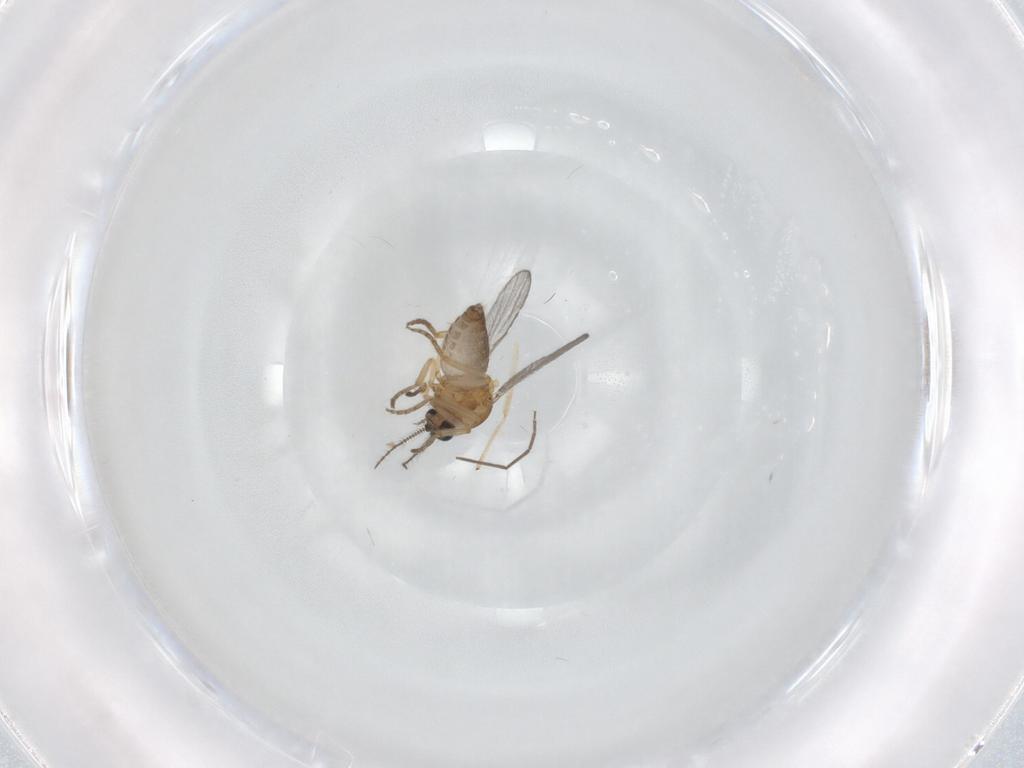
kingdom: Animalia
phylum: Arthropoda
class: Insecta
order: Diptera
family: Chironomidae
